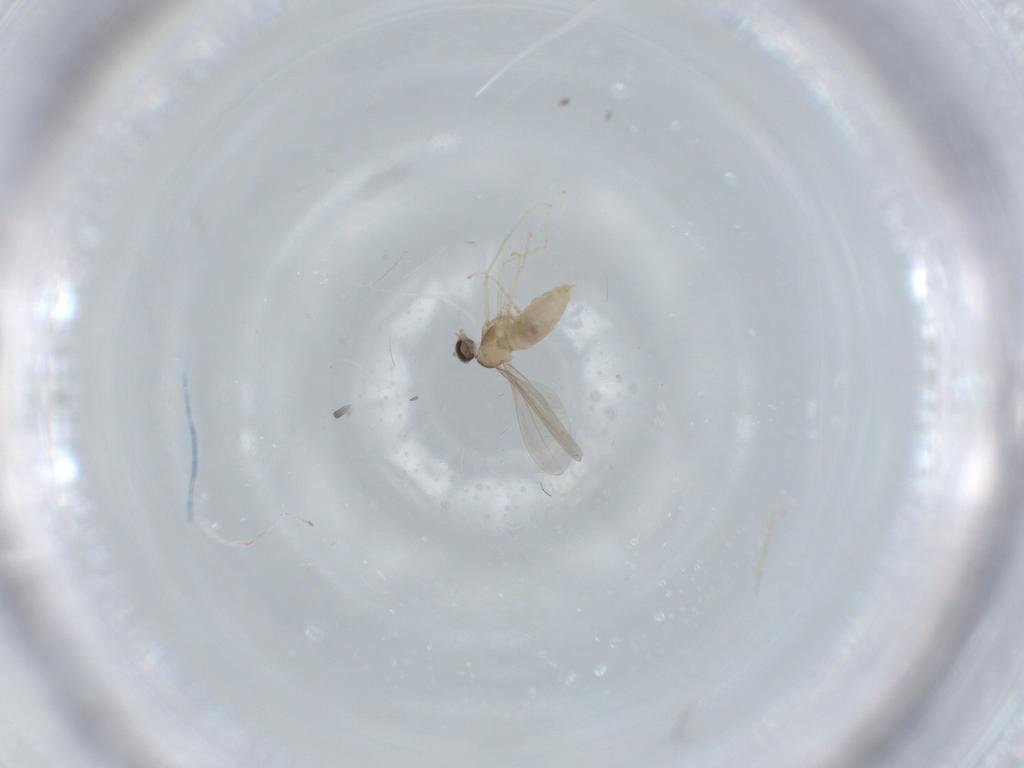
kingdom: Animalia
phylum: Arthropoda
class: Insecta
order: Diptera
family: Cecidomyiidae
